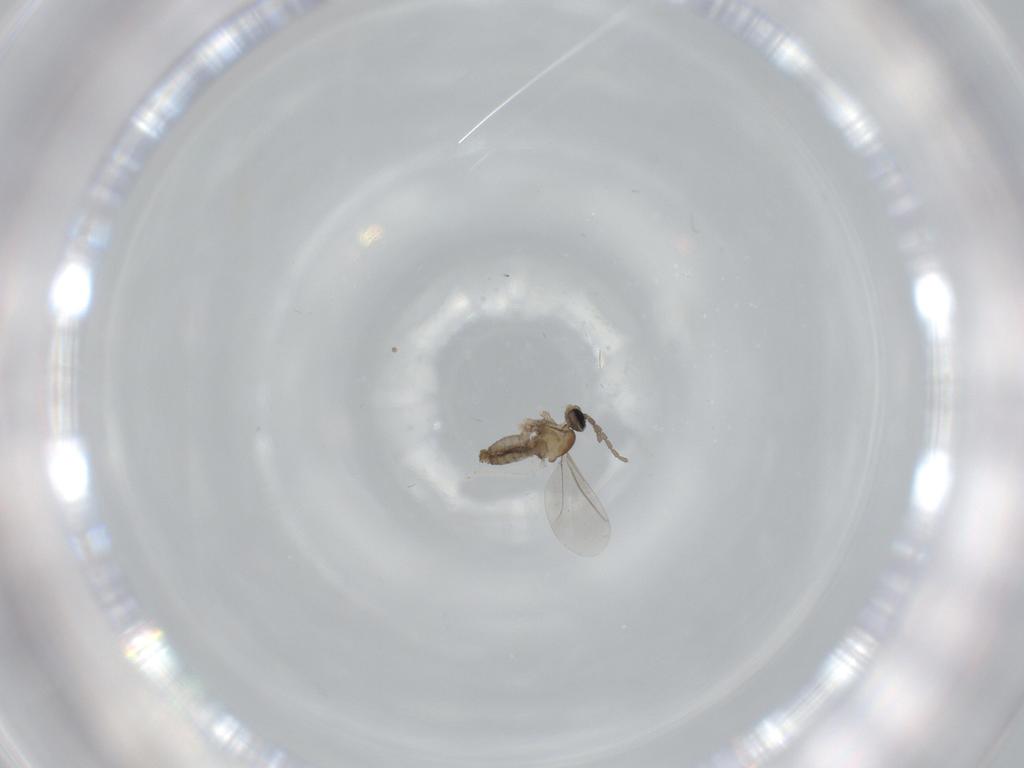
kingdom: Animalia
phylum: Arthropoda
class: Insecta
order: Diptera
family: Cecidomyiidae
